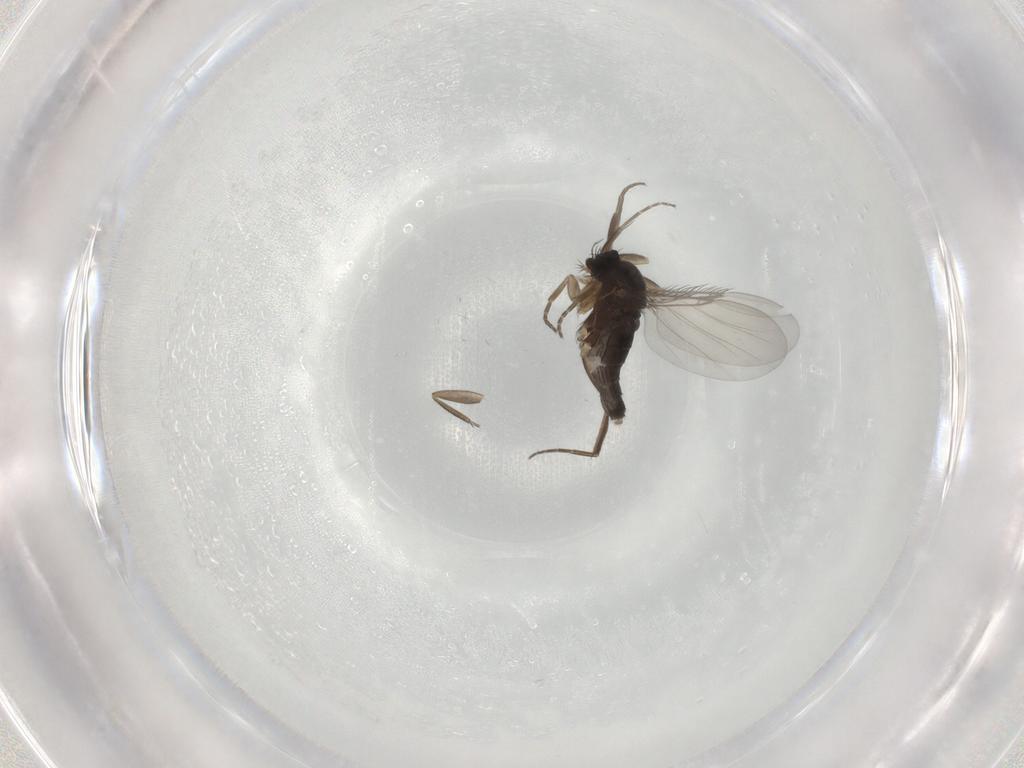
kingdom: Animalia
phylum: Arthropoda
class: Insecta
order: Diptera
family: Phoridae
